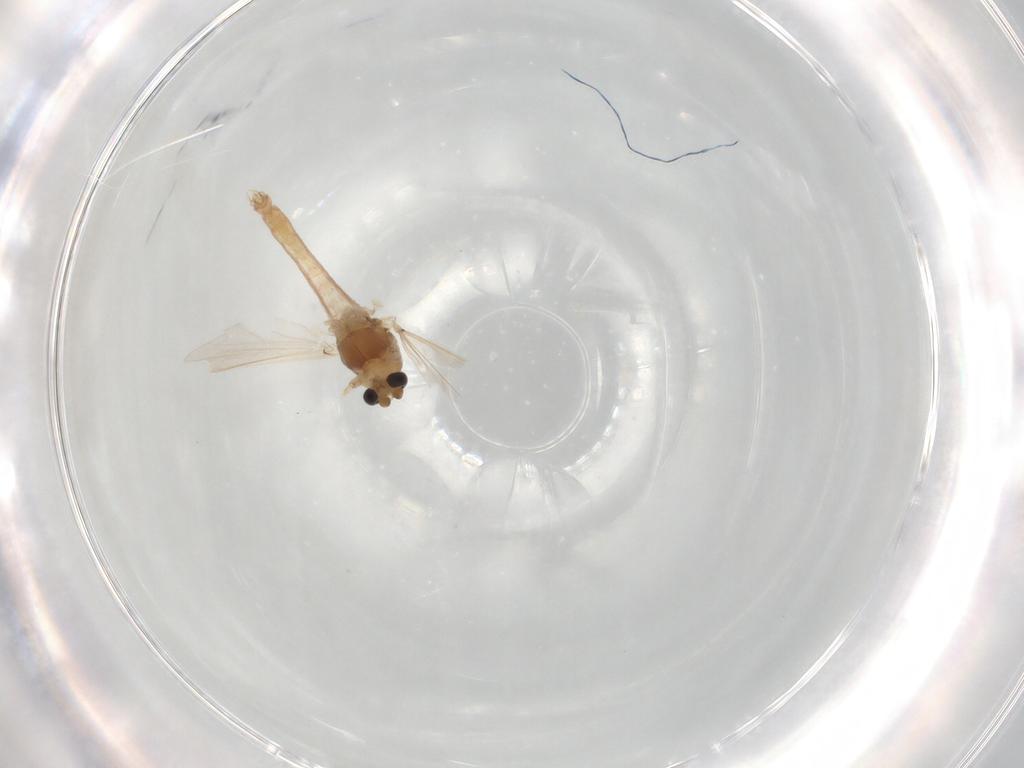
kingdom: Animalia
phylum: Arthropoda
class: Insecta
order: Diptera
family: Chironomidae
